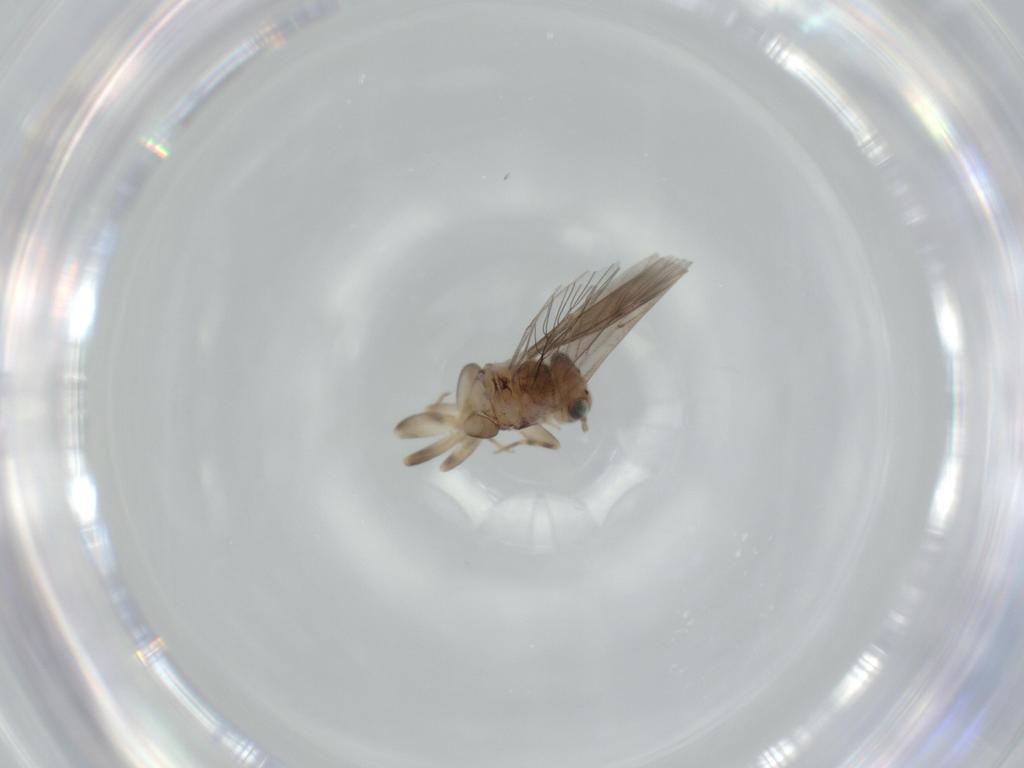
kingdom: Animalia
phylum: Arthropoda
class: Insecta
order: Psocodea
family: Lepidopsocidae
